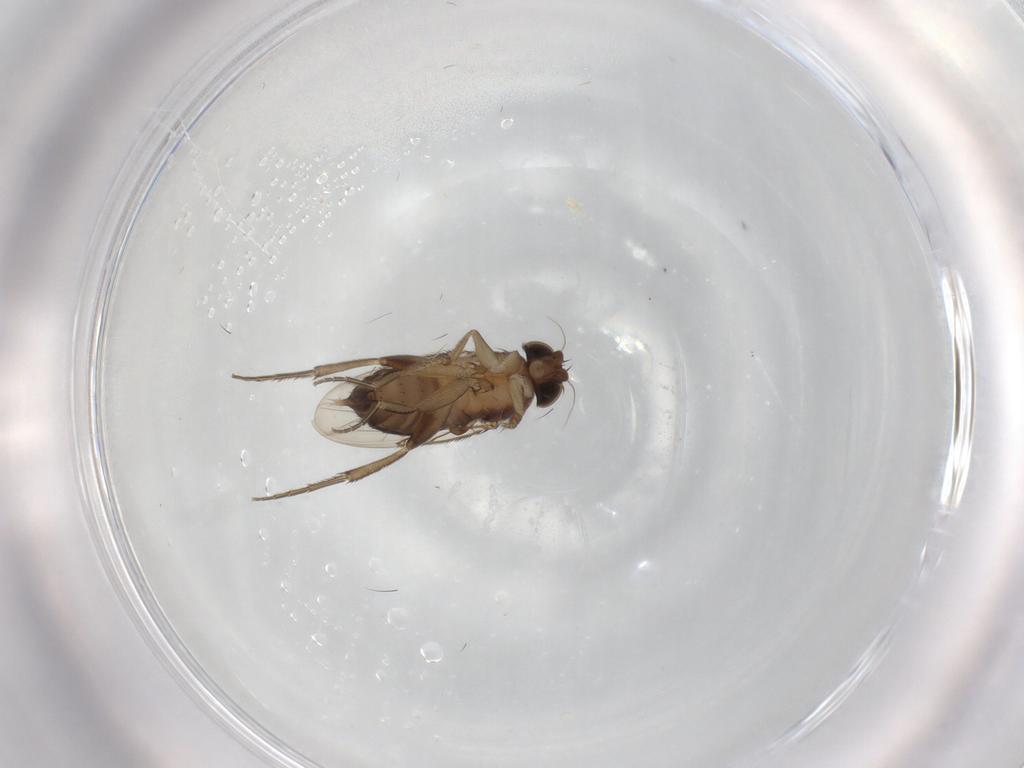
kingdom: Animalia
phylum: Arthropoda
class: Insecta
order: Diptera
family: Phoridae
